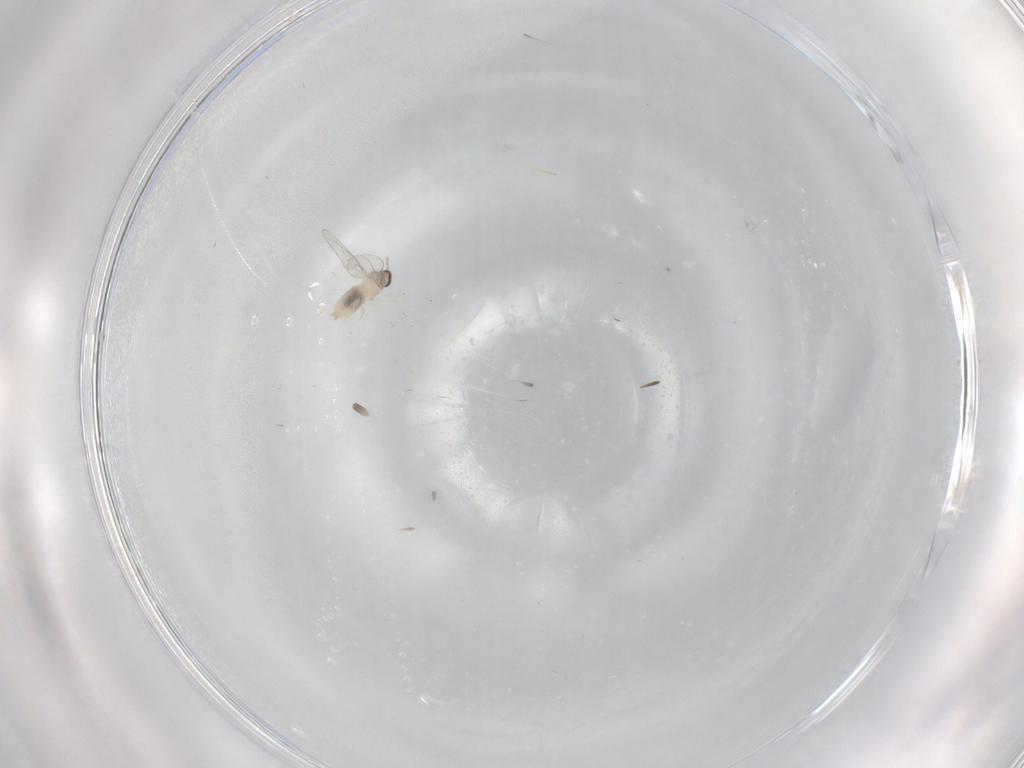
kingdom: Animalia
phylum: Arthropoda
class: Insecta
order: Diptera
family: Cecidomyiidae
